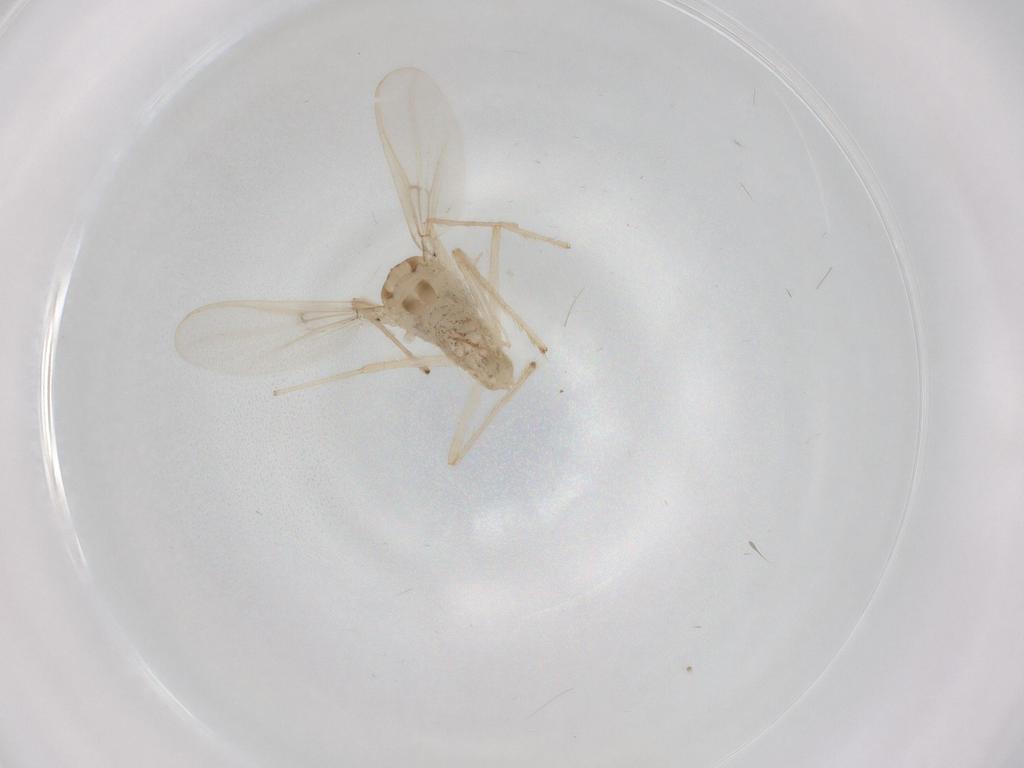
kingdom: Animalia
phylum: Arthropoda
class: Insecta
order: Diptera
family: Chironomidae
